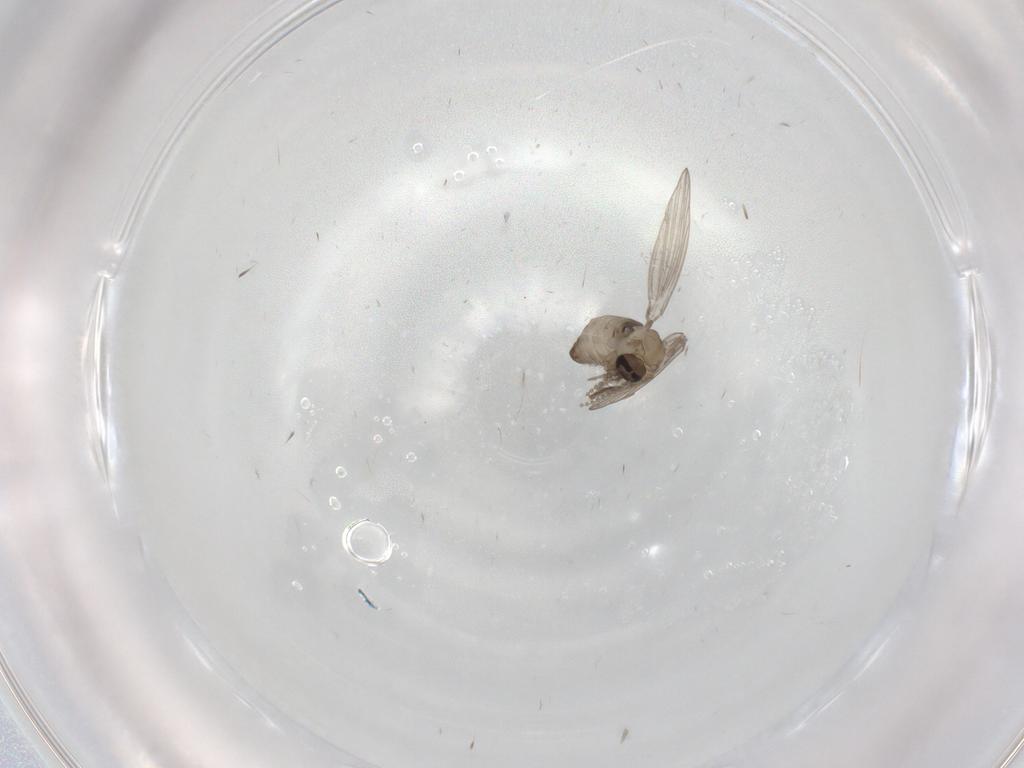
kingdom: Animalia
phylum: Arthropoda
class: Insecta
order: Diptera
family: Psychodidae
